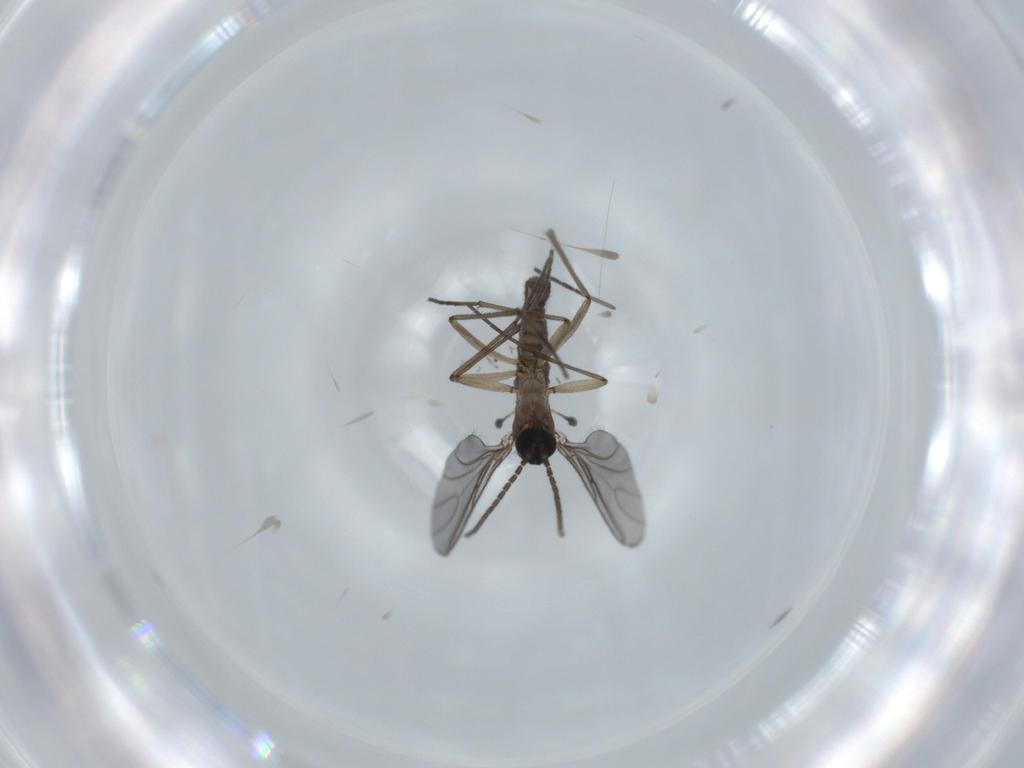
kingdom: Animalia
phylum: Arthropoda
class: Insecta
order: Diptera
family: Sciaridae
